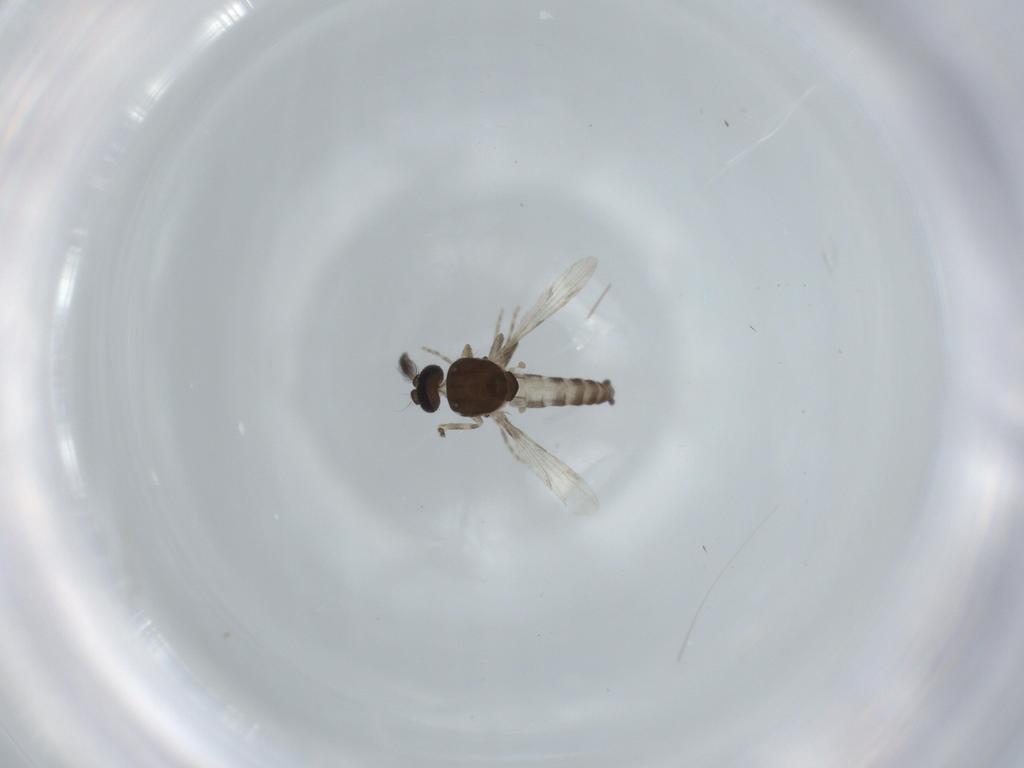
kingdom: Animalia
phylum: Arthropoda
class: Insecta
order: Diptera
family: Ceratopogonidae
